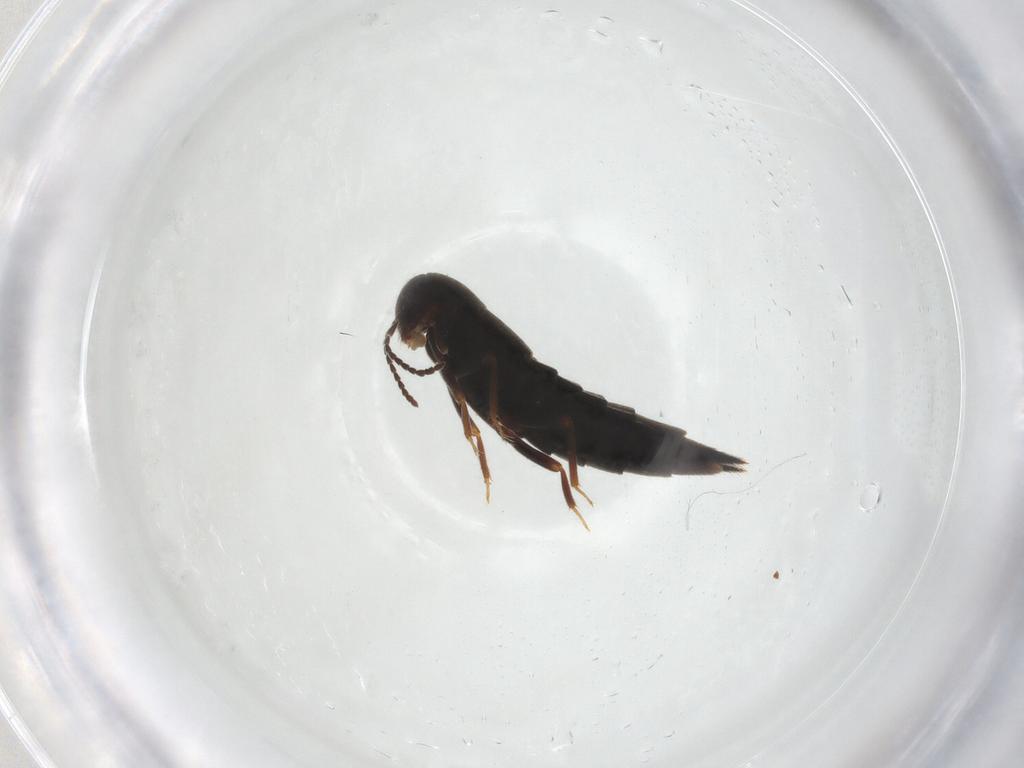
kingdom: Animalia
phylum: Arthropoda
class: Insecta
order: Coleoptera
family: Staphylinidae
